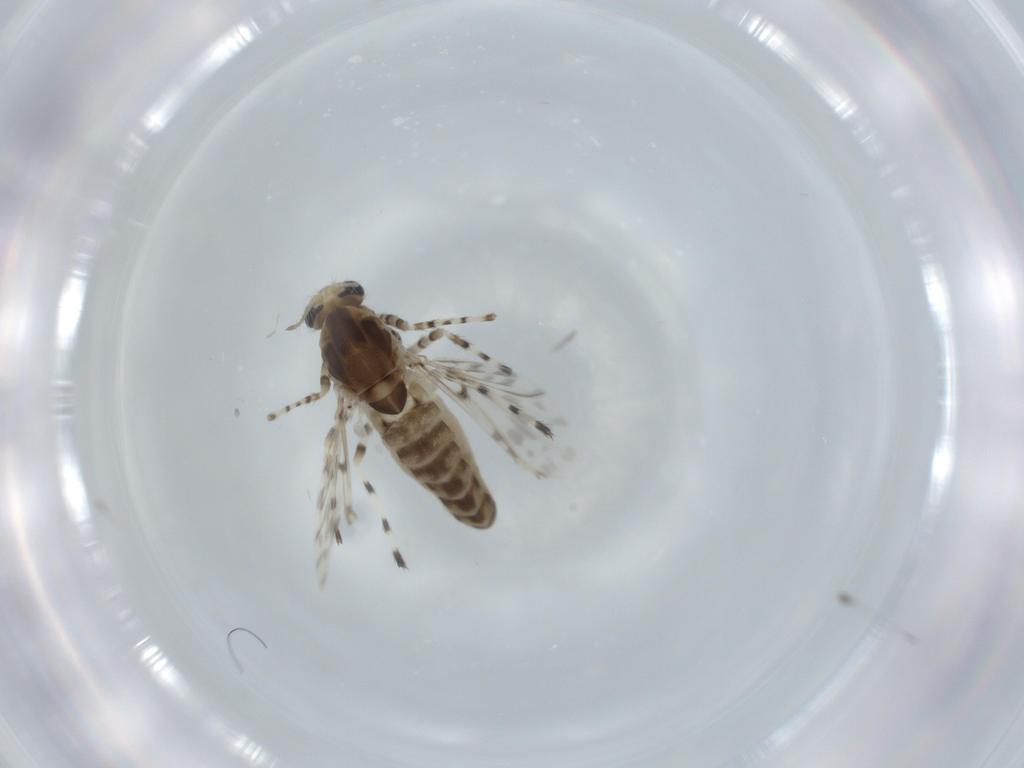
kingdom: Animalia
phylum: Arthropoda
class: Insecta
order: Diptera
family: Chironomidae
